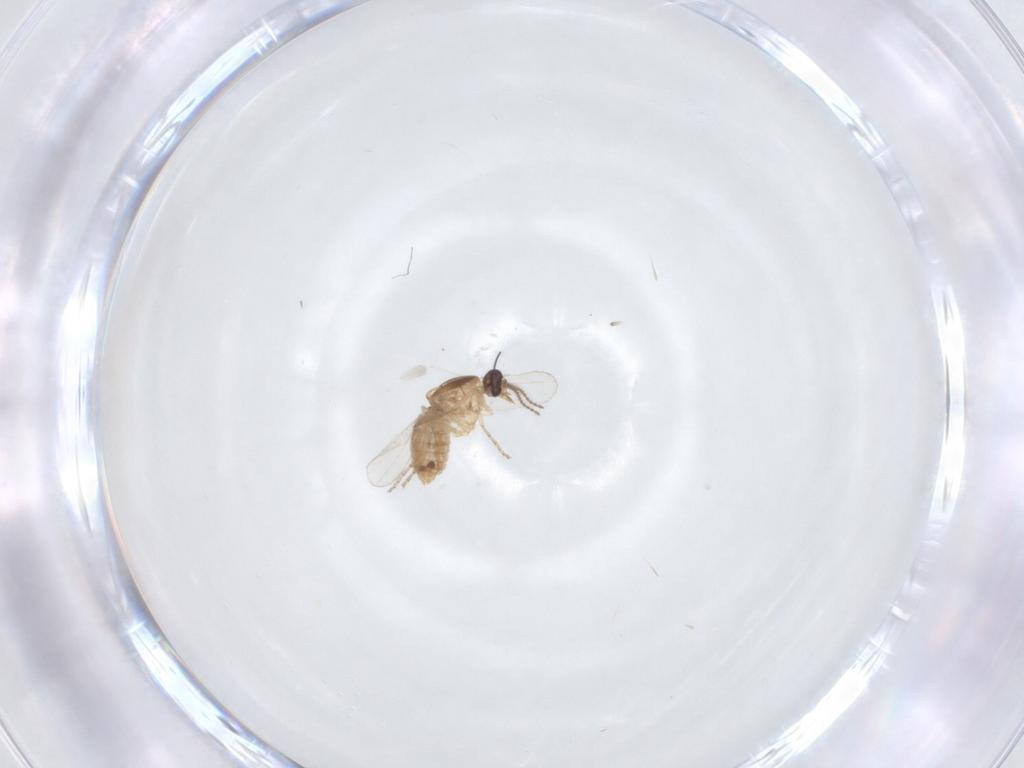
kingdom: Animalia
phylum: Arthropoda
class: Insecta
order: Diptera
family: Ceratopogonidae
